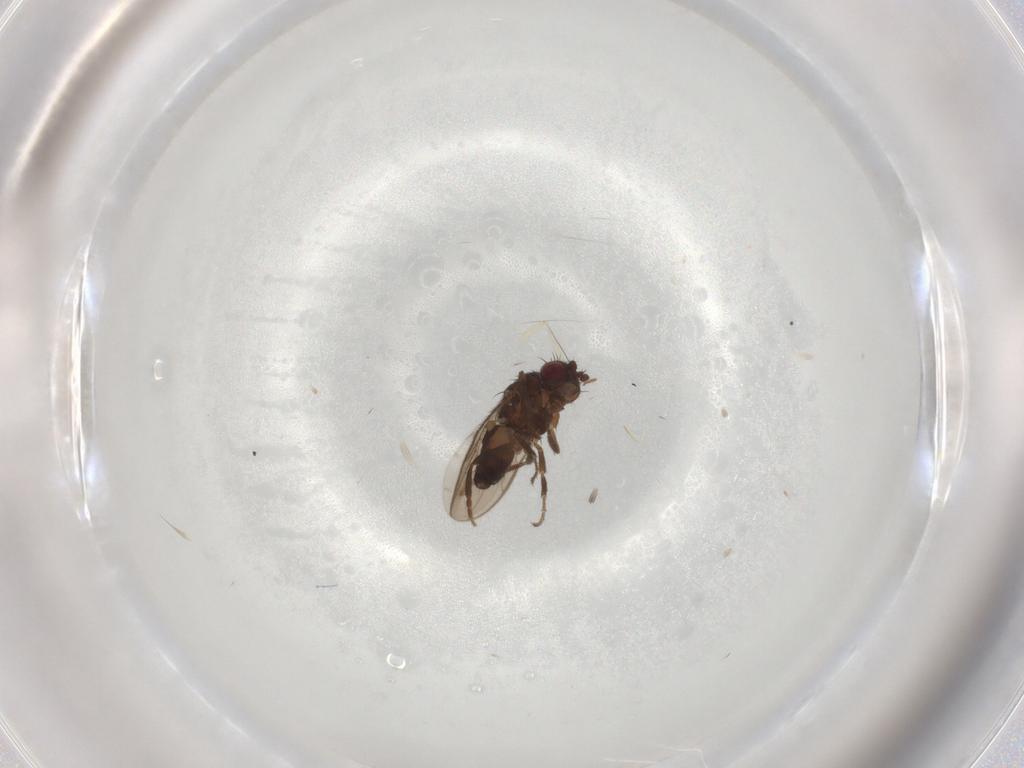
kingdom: Animalia
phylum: Arthropoda
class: Insecta
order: Diptera
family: Sphaeroceridae
